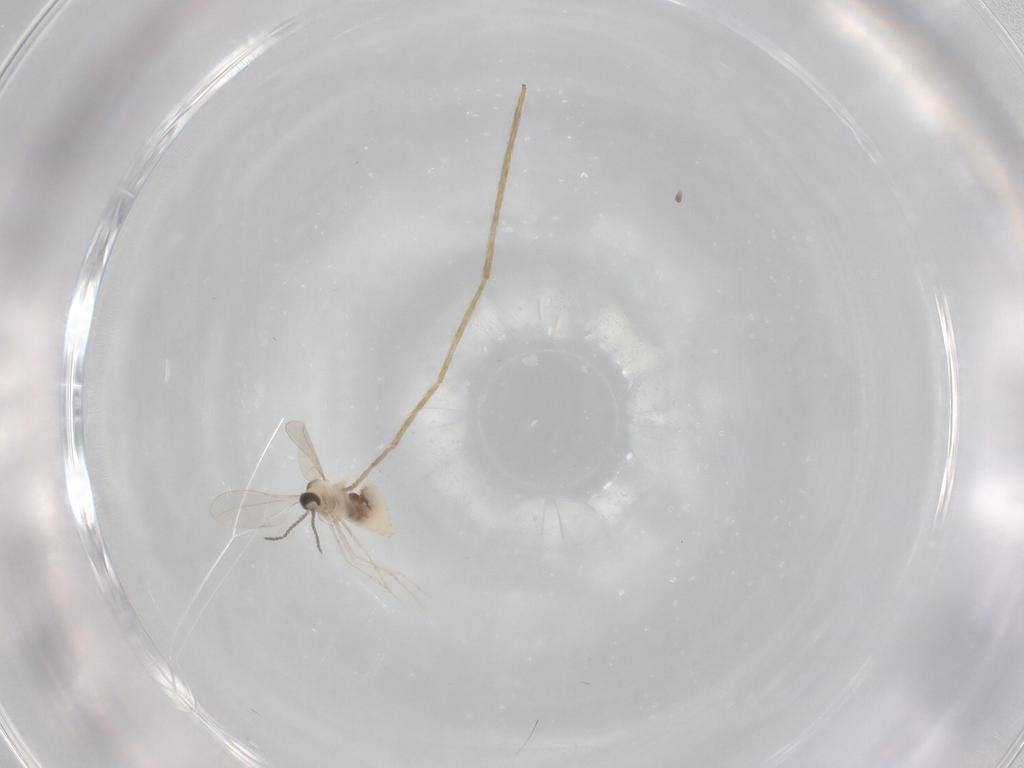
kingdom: Animalia
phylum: Arthropoda
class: Insecta
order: Diptera
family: Chironomidae
